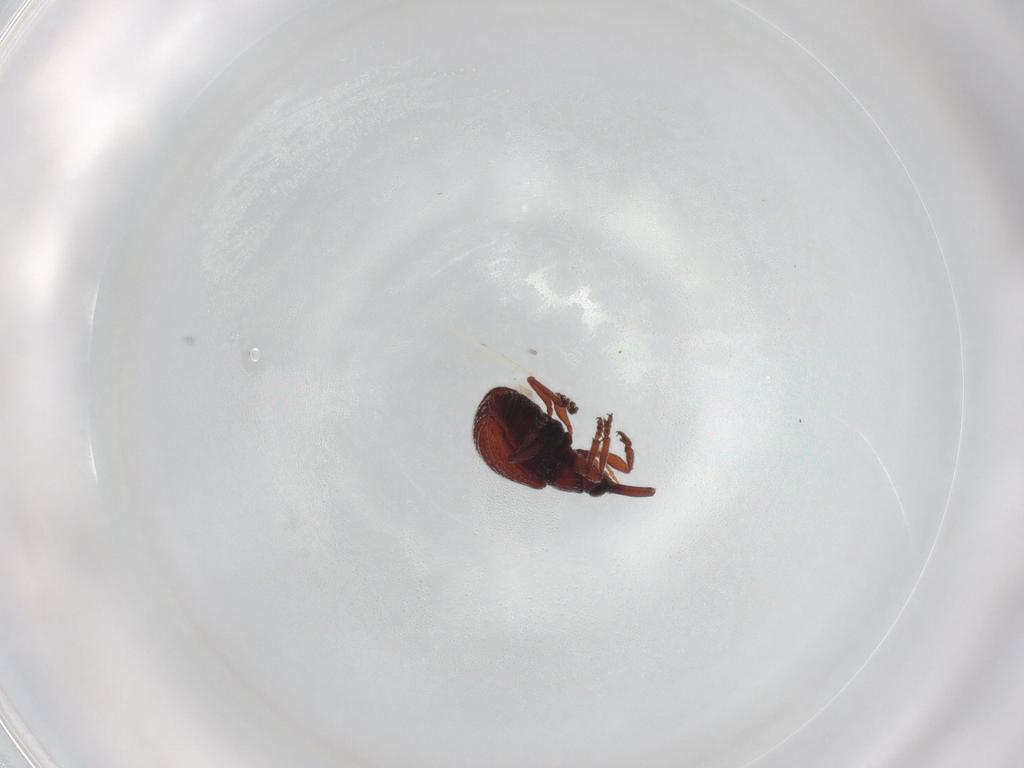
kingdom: Animalia
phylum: Arthropoda
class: Insecta
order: Coleoptera
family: Brentidae
